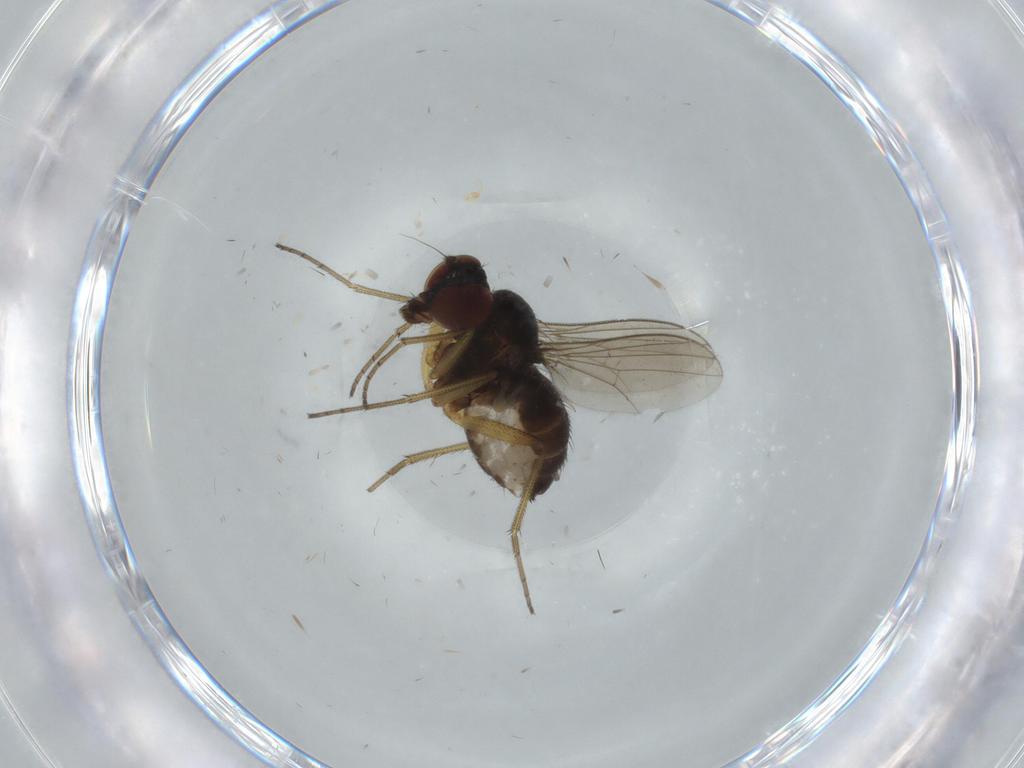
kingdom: Animalia
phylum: Arthropoda
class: Insecta
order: Diptera
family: Dolichopodidae
